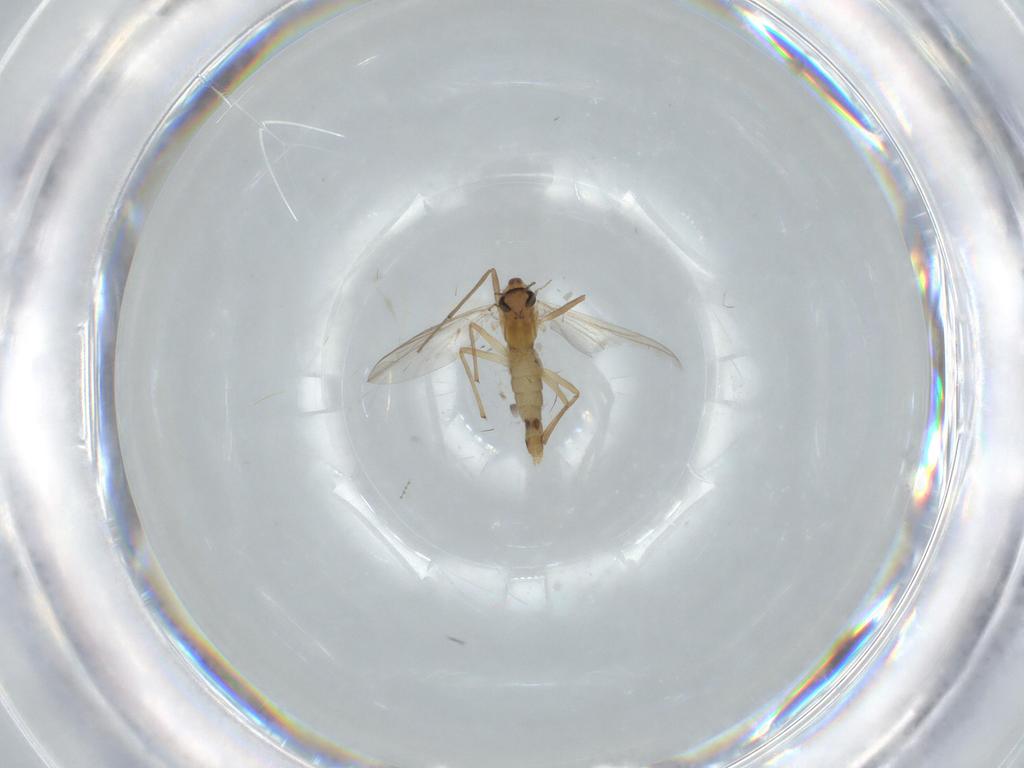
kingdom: Animalia
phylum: Arthropoda
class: Insecta
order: Diptera
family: Chironomidae
